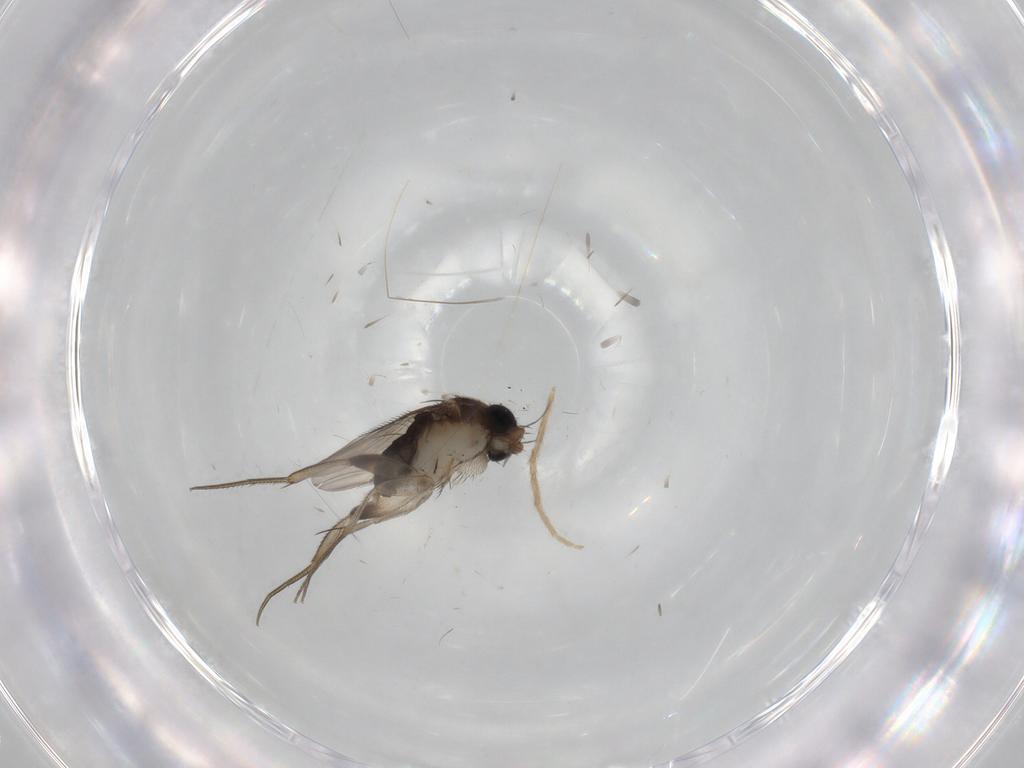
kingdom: Animalia
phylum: Arthropoda
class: Insecta
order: Diptera
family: Phoridae
